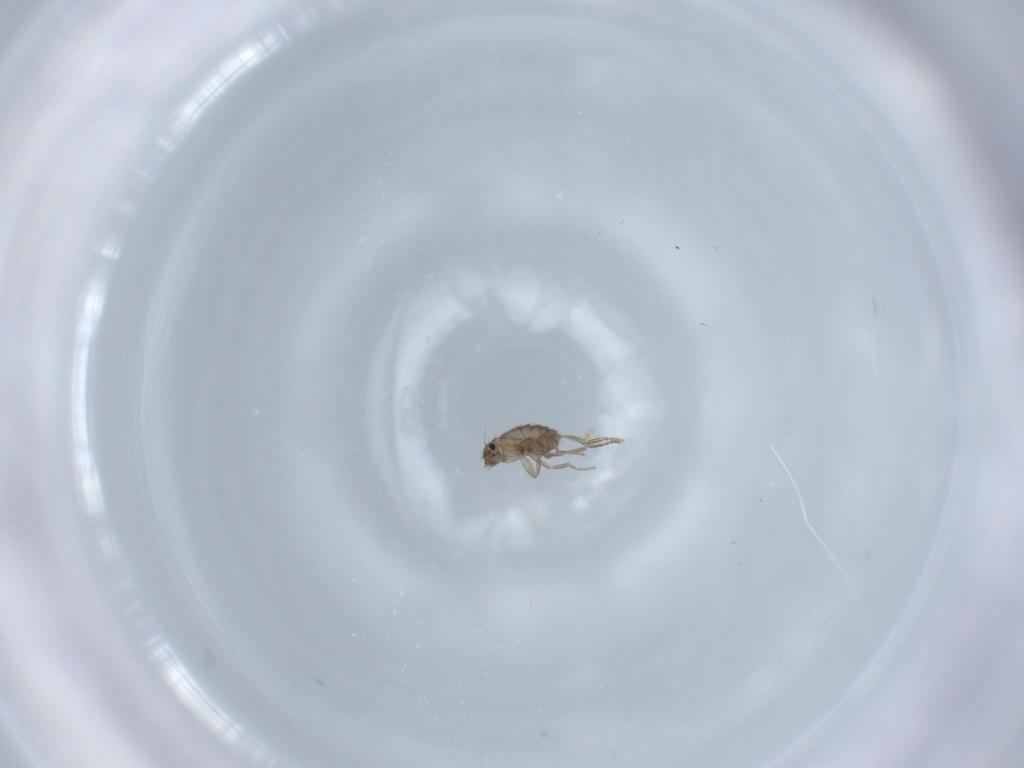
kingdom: Animalia
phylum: Arthropoda
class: Insecta
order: Diptera
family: Phoridae
